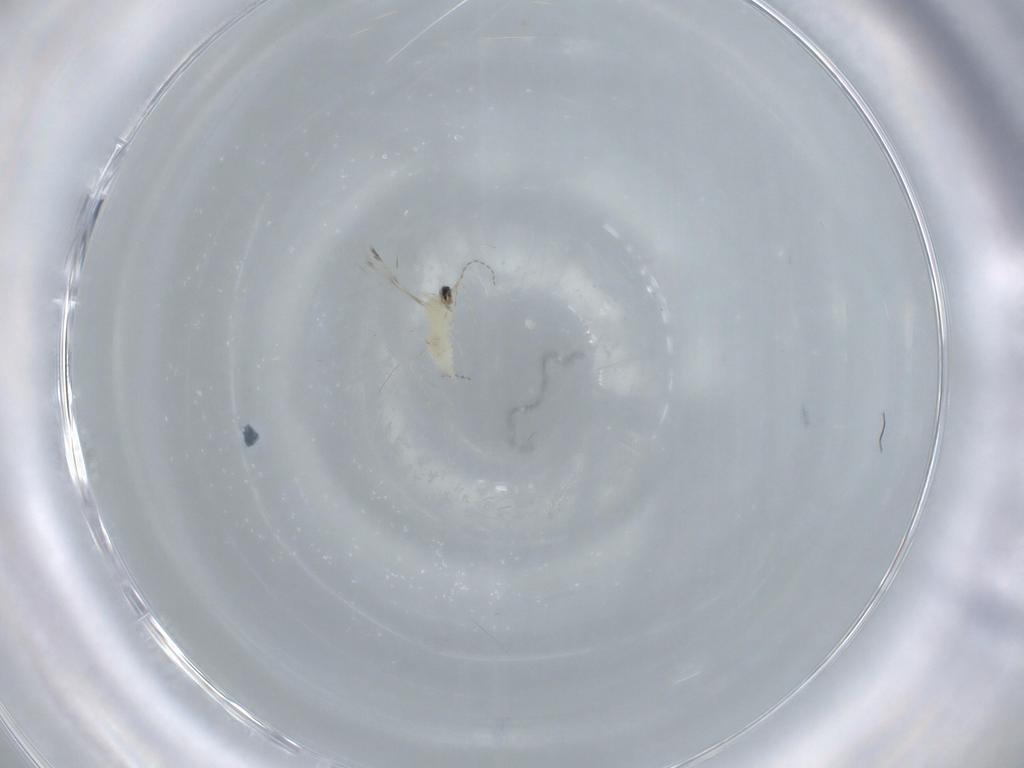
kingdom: Animalia
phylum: Arthropoda
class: Insecta
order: Diptera
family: Cecidomyiidae
